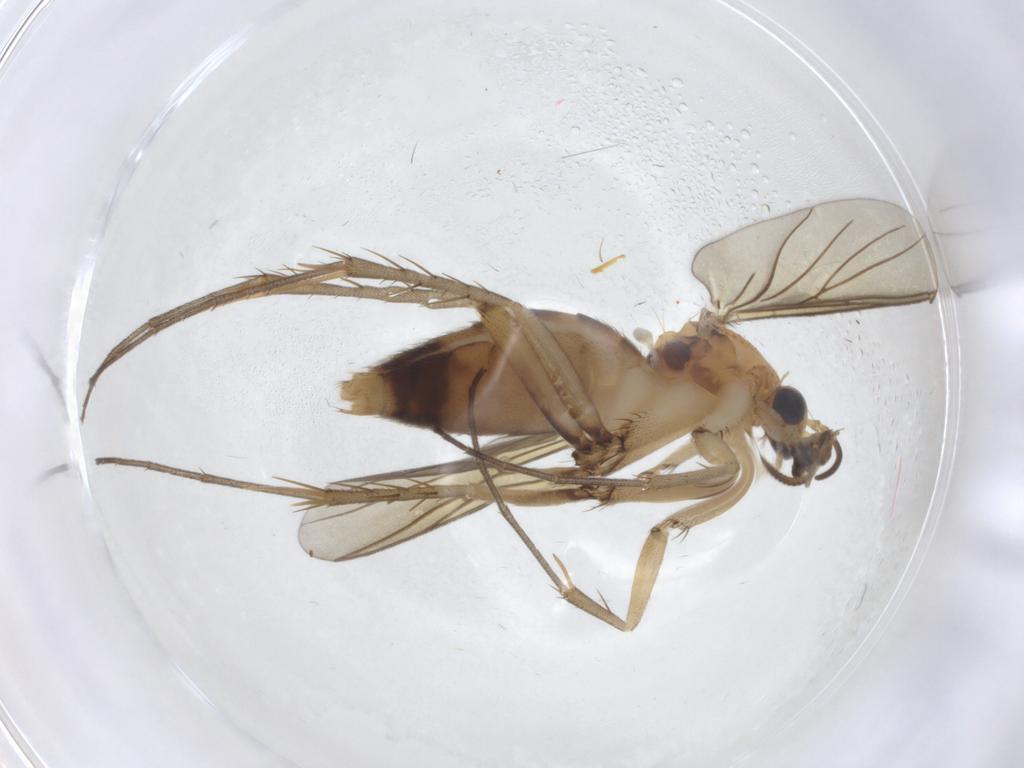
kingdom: Animalia
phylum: Arthropoda
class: Insecta
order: Diptera
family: Mycetophilidae
